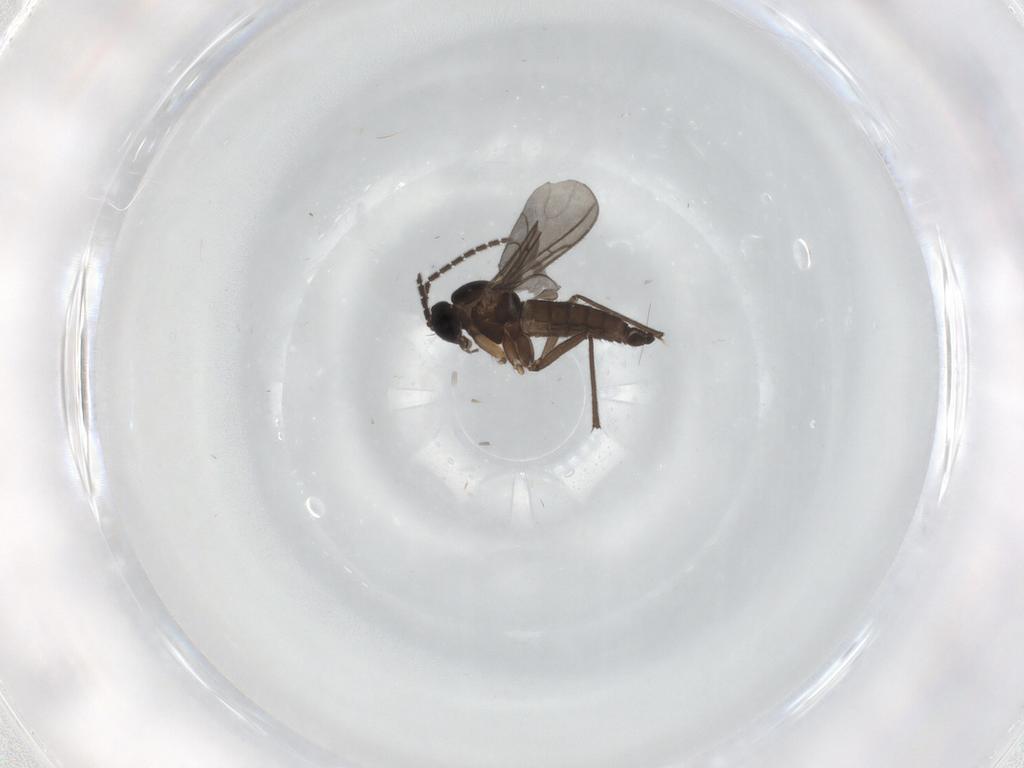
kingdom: Animalia
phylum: Arthropoda
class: Insecta
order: Diptera
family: Sciaridae
